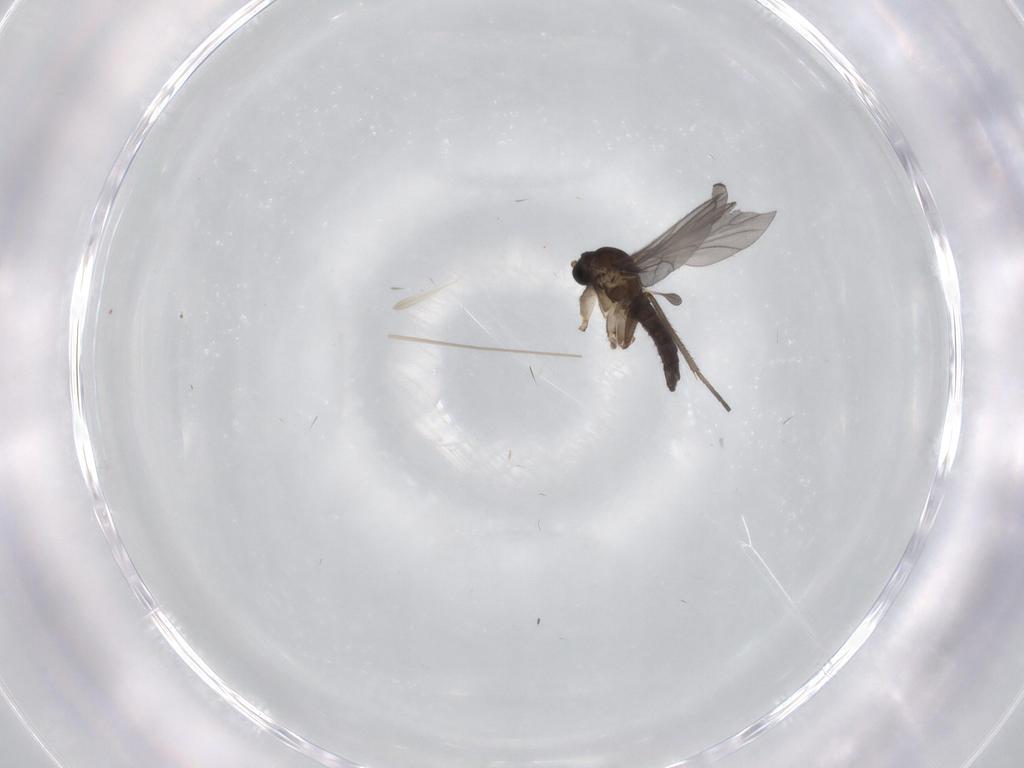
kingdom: Animalia
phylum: Arthropoda
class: Insecta
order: Diptera
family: Sciaridae
